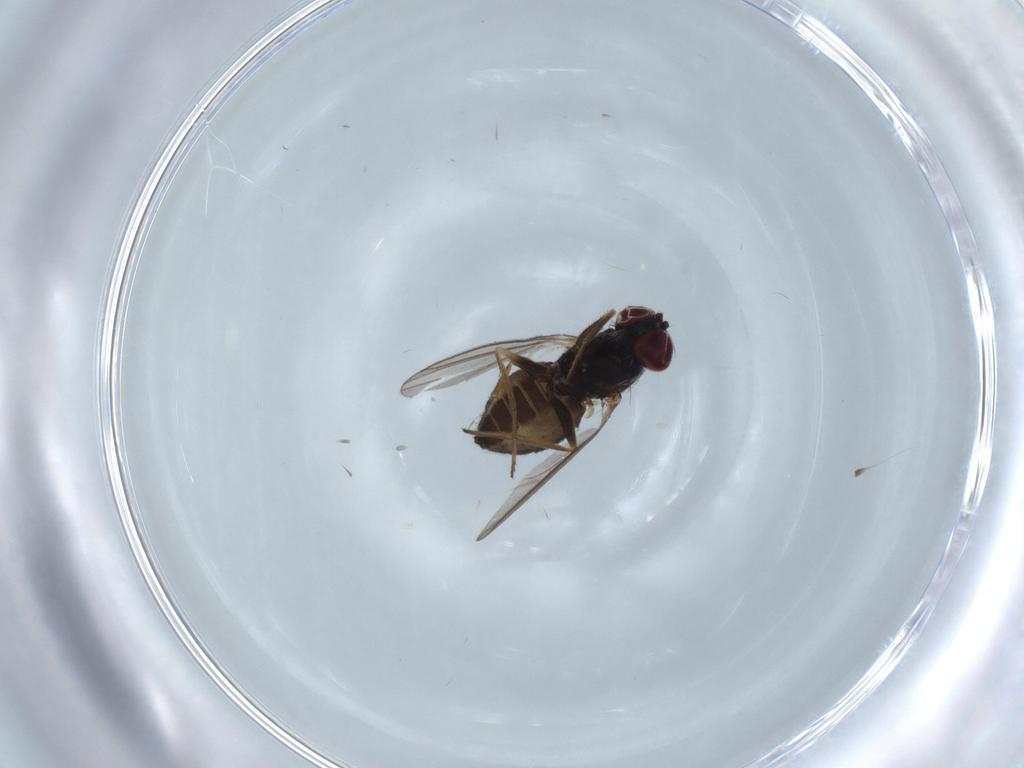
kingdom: Animalia
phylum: Arthropoda
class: Insecta
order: Diptera
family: Dolichopodidae
